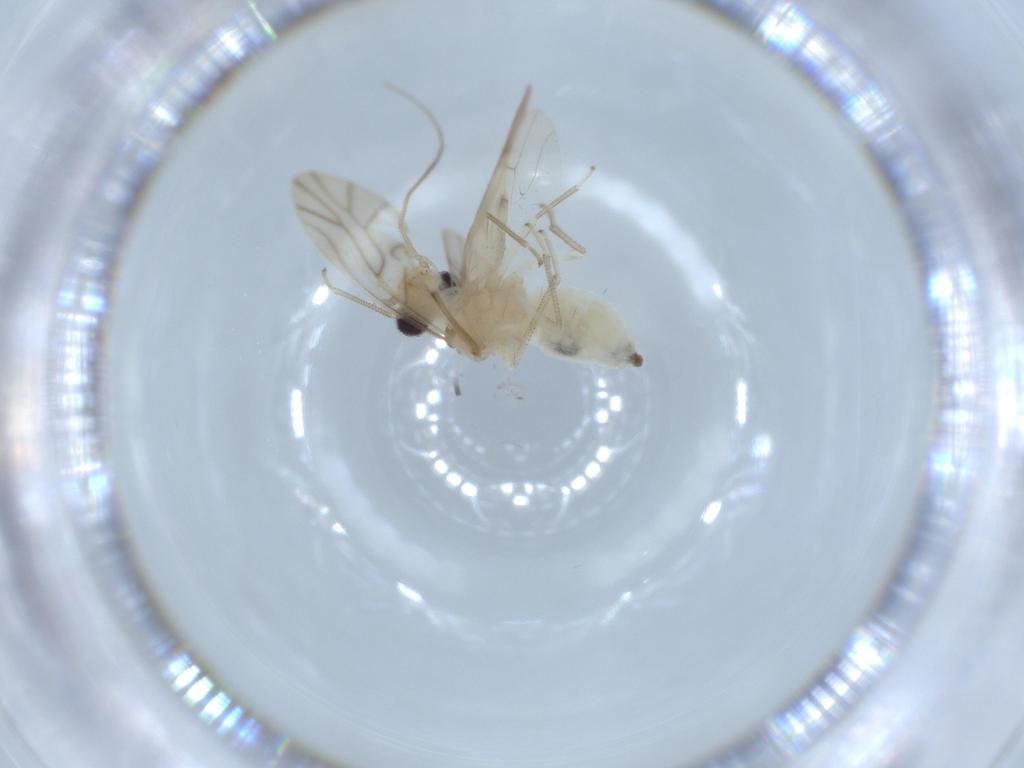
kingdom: Animalia
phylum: Arthropoda
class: Insecta
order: Psocodea
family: Caeciliusidae
